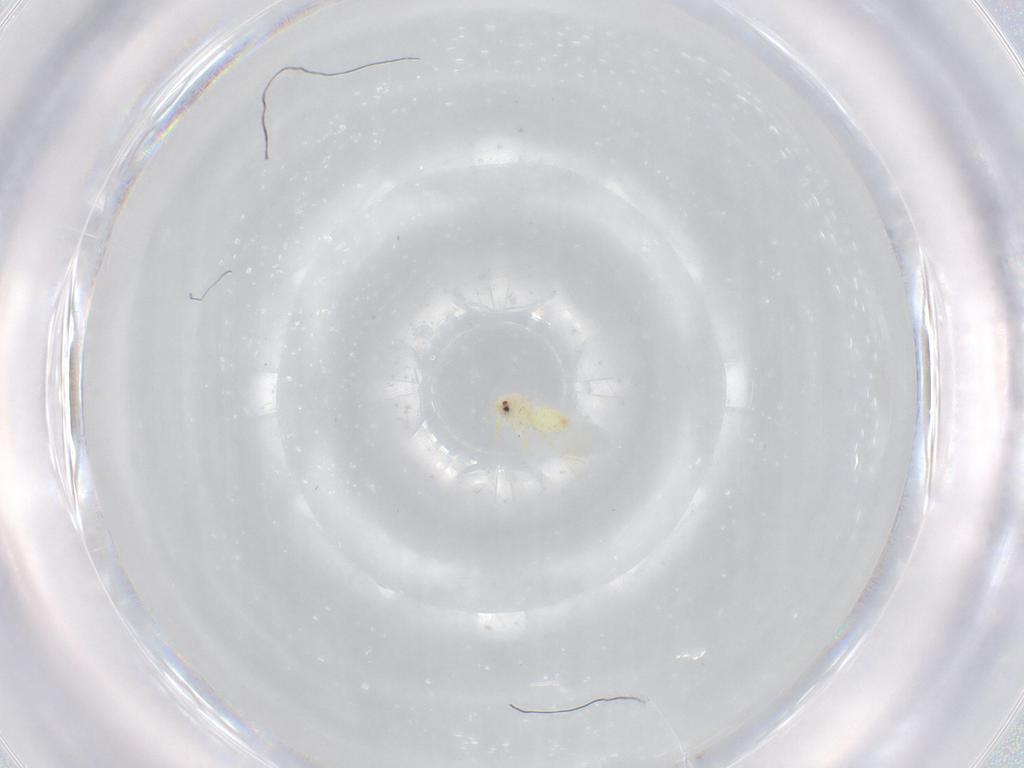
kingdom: Animalia
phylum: Arthropoda
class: Insecta
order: Hemiptera
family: Aleyrodidae
